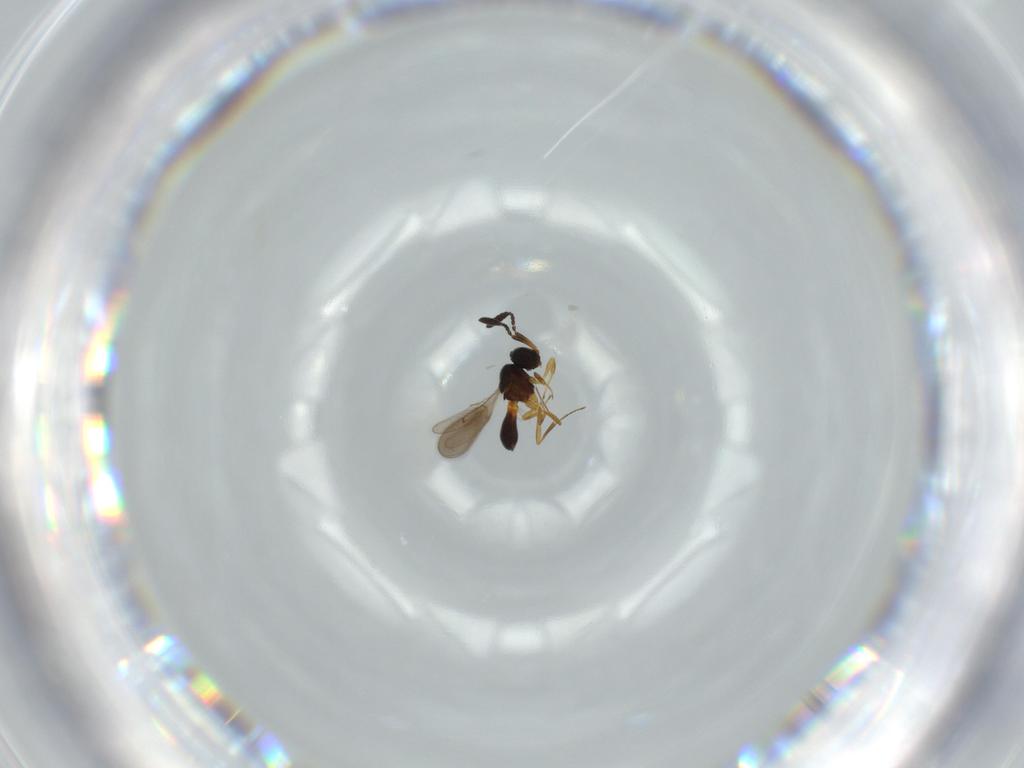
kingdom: Animalia
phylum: Arthropoda
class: Insecta
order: Hymenoptera
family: Scelionidae
